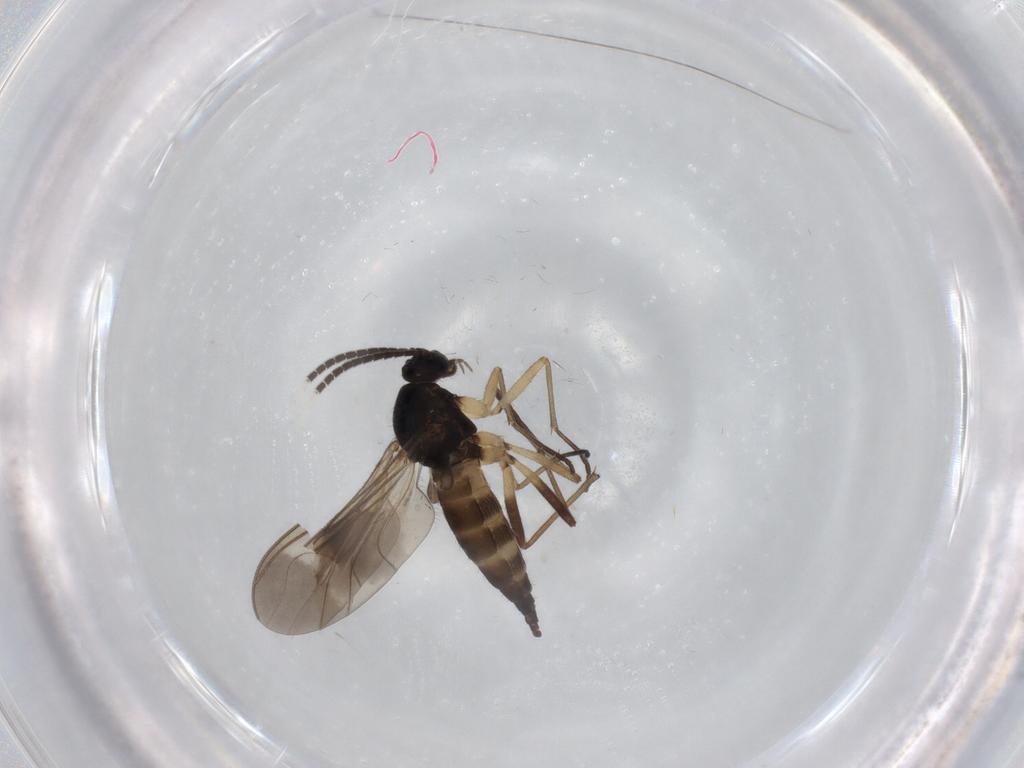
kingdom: Animalia
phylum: Arthropoda
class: Insecta
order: Diptera
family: Sciaridae
